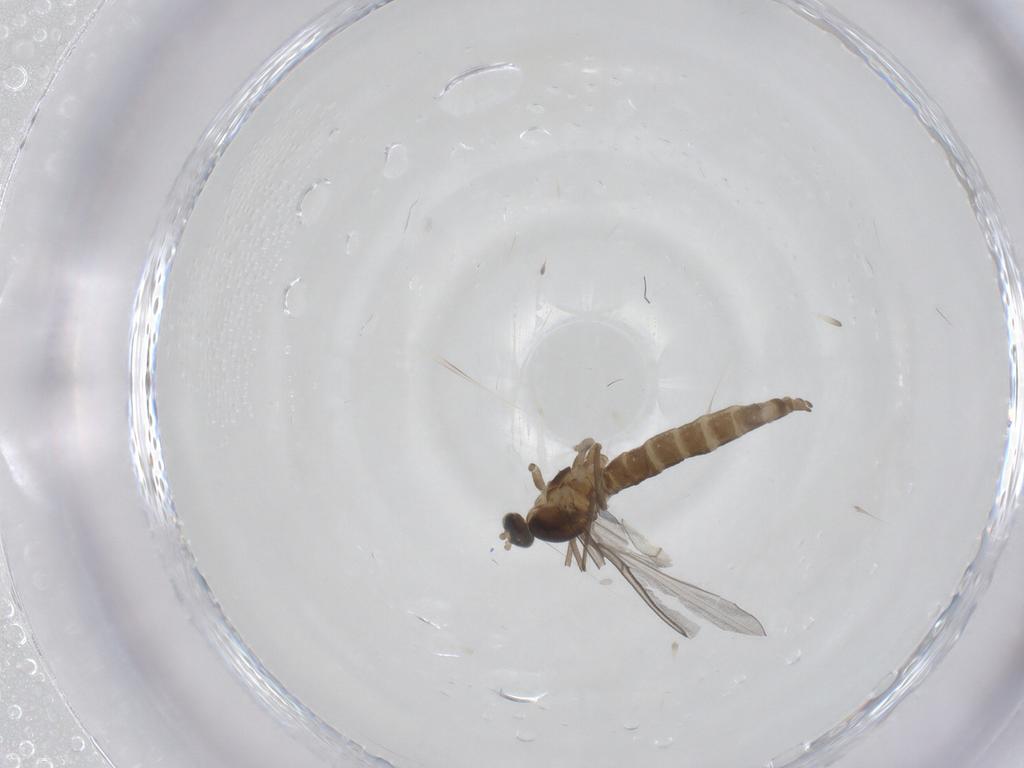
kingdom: Animalia
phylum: Arthropoda
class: Insecta
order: Diptera
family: Cecidomyiidae
